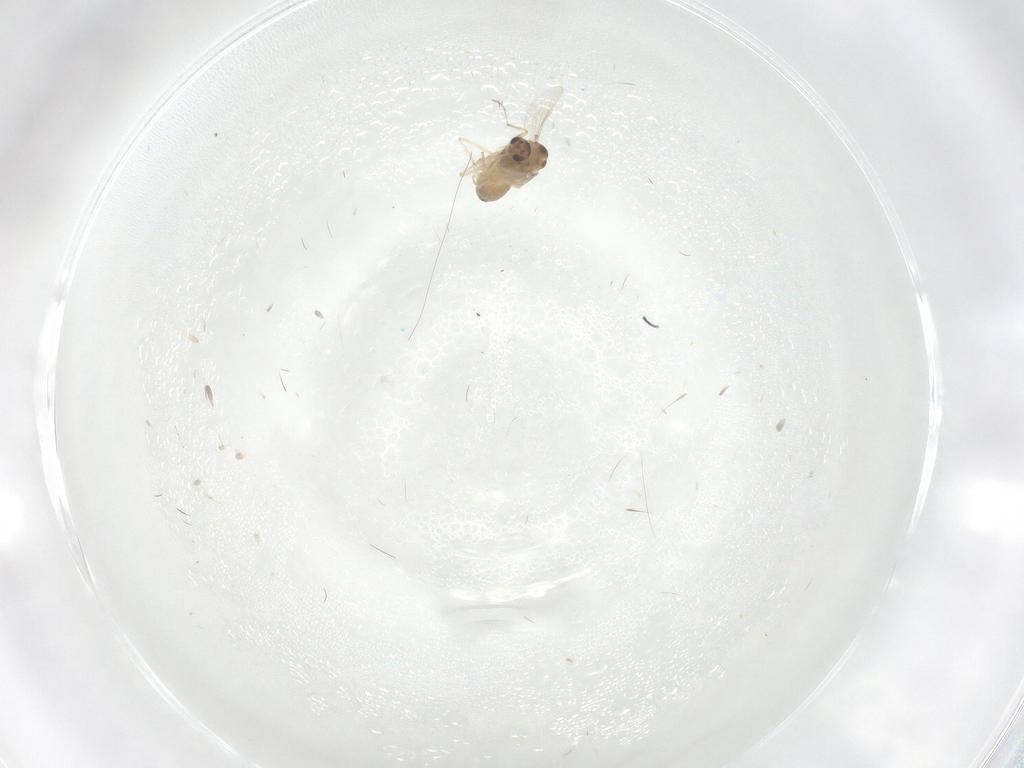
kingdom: Animalia
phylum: Arthropoda
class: Insecta
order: Diptera
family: Chironomidae
